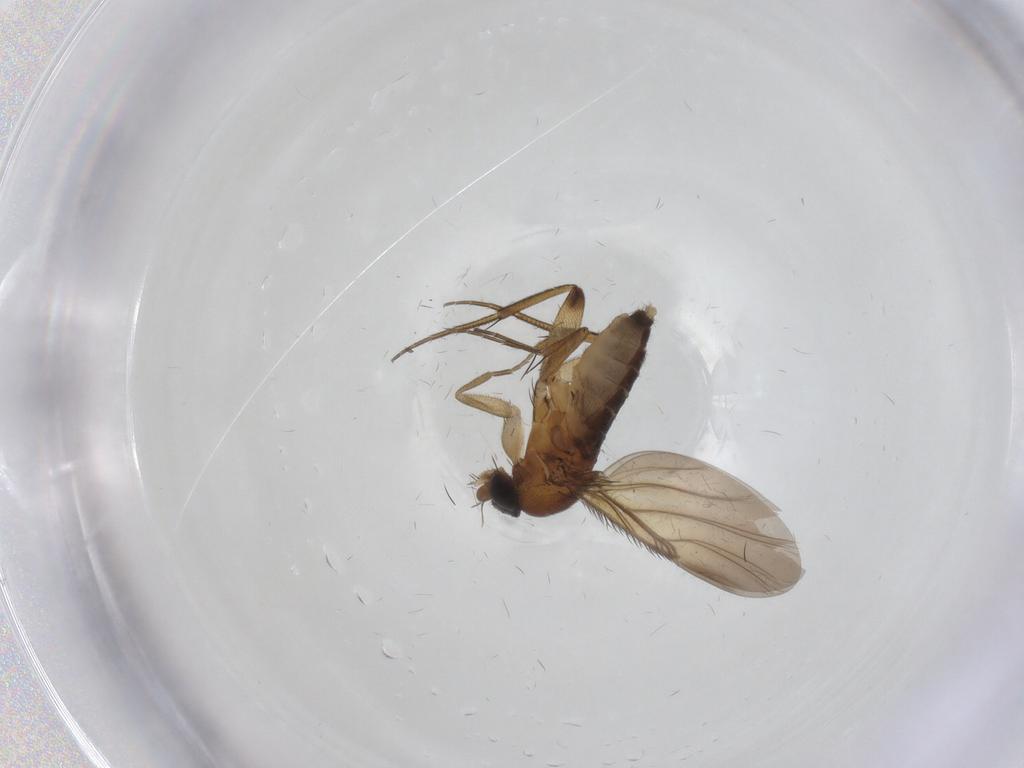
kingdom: Animalia
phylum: Arthropoda
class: Insecta
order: Diptera
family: Phoridae
